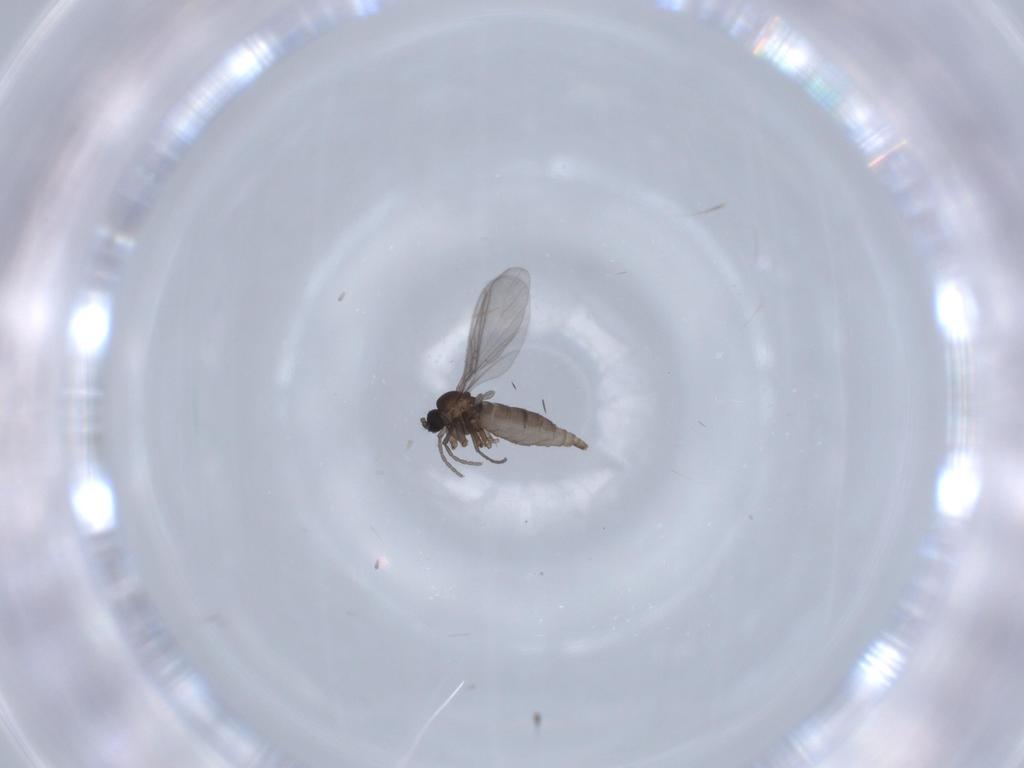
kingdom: Animalia
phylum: Arthropoda
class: Insecta
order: Diptera
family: Sciaridae
